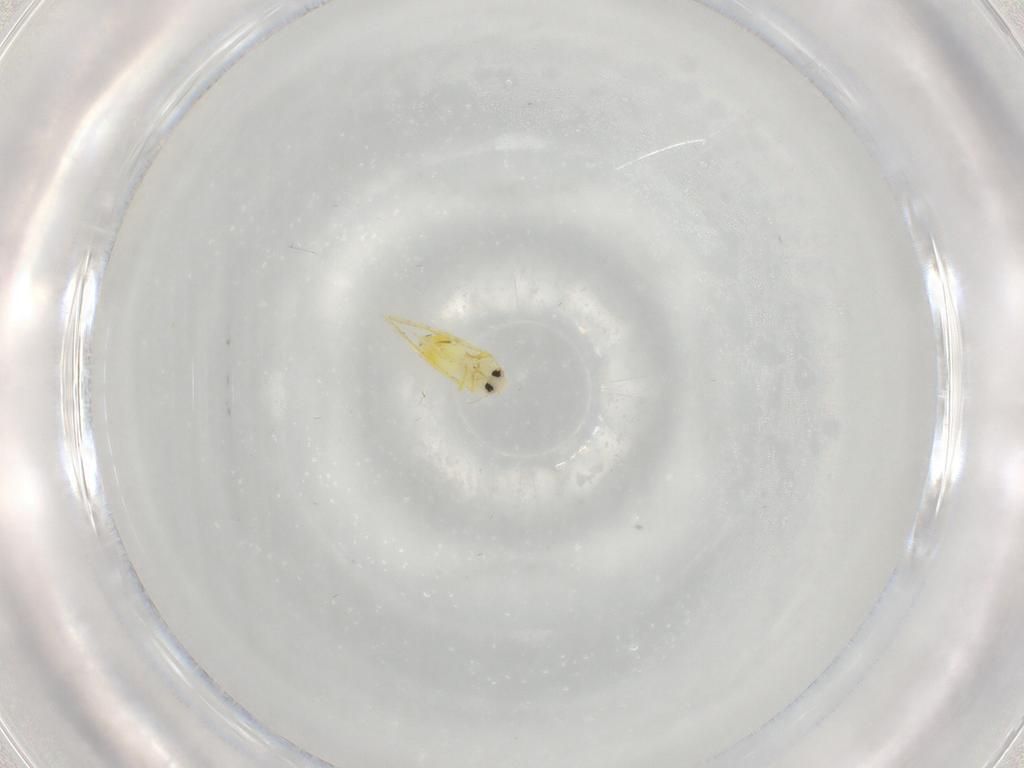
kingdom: Animalia
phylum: Arthropoda
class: Insecta
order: Hemiptera
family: Aleyrodidae
